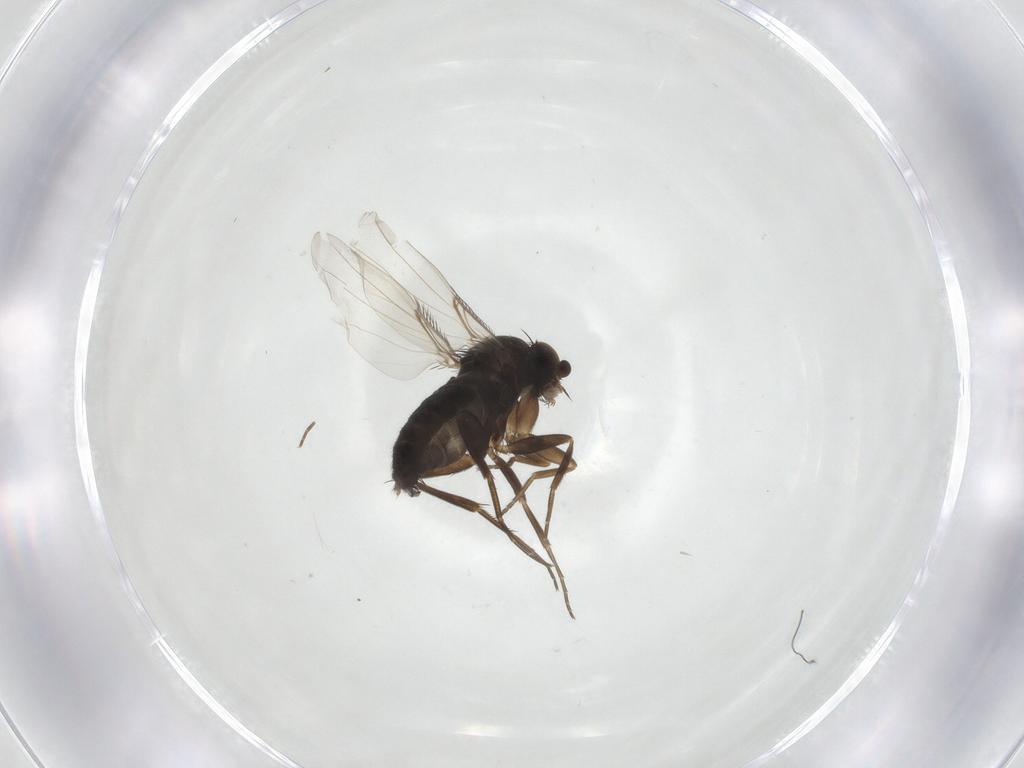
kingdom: Animalia
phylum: Arthropoda
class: Insecta
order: Diptera
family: Phoridae
